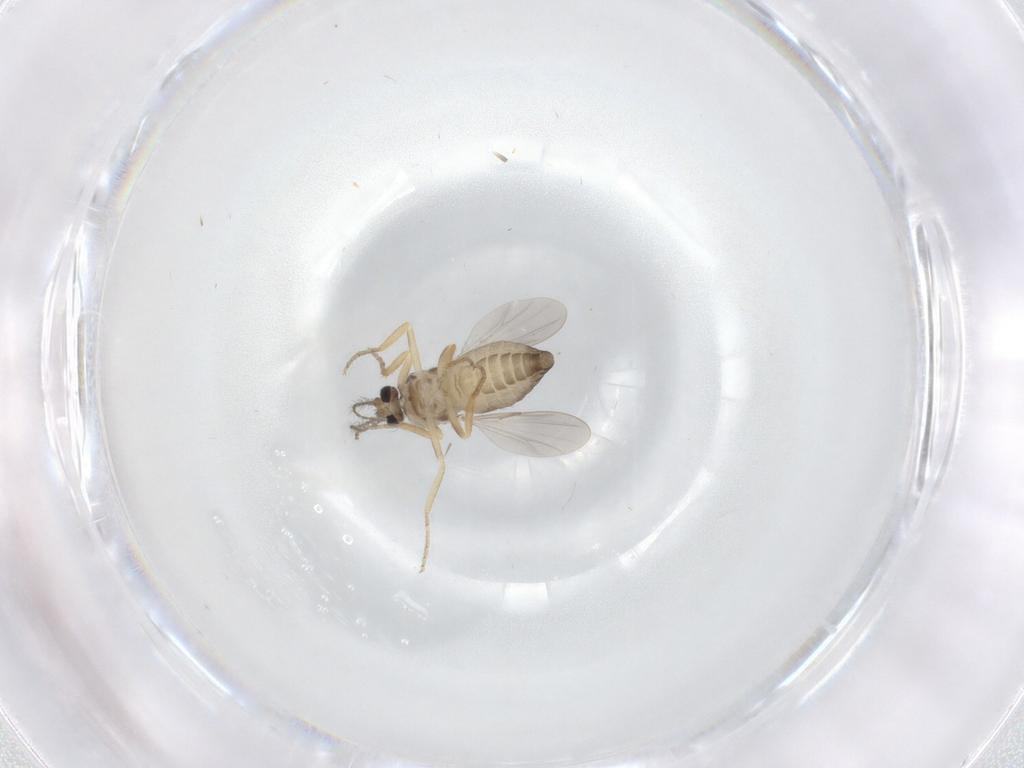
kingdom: Animalia
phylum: Arthropoda
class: Insecta
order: Diptera
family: Ceratopogonidae
